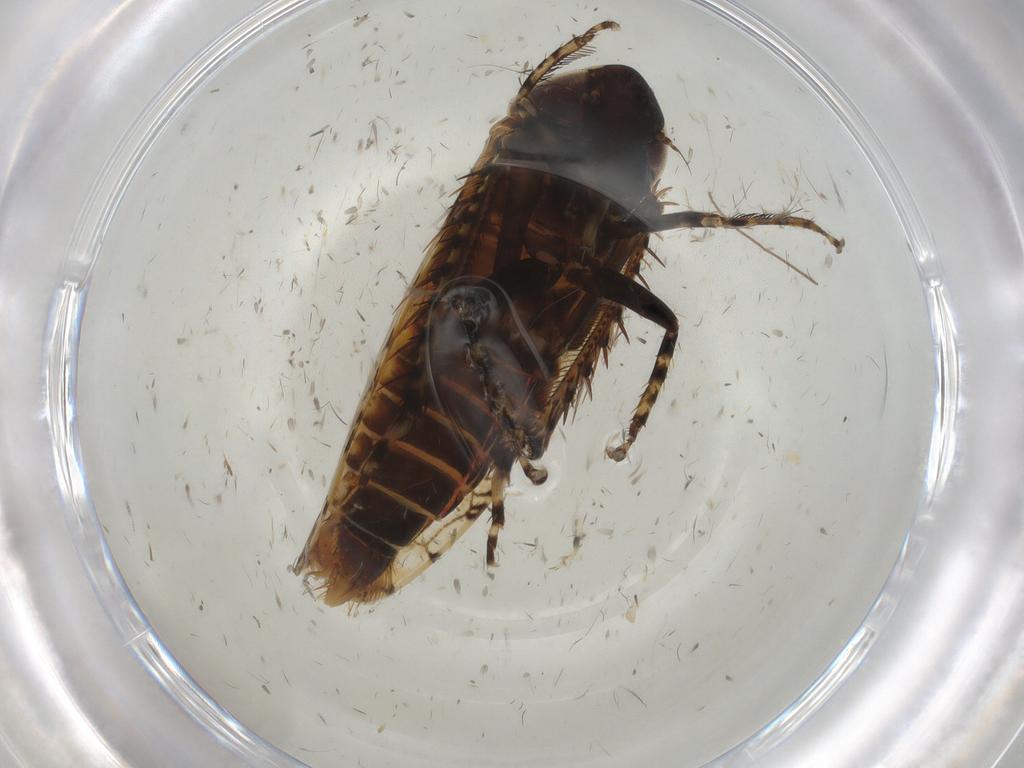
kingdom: Animalia
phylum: Arthropoda
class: Insecta
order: Hemiptera
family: Cicadellidae
